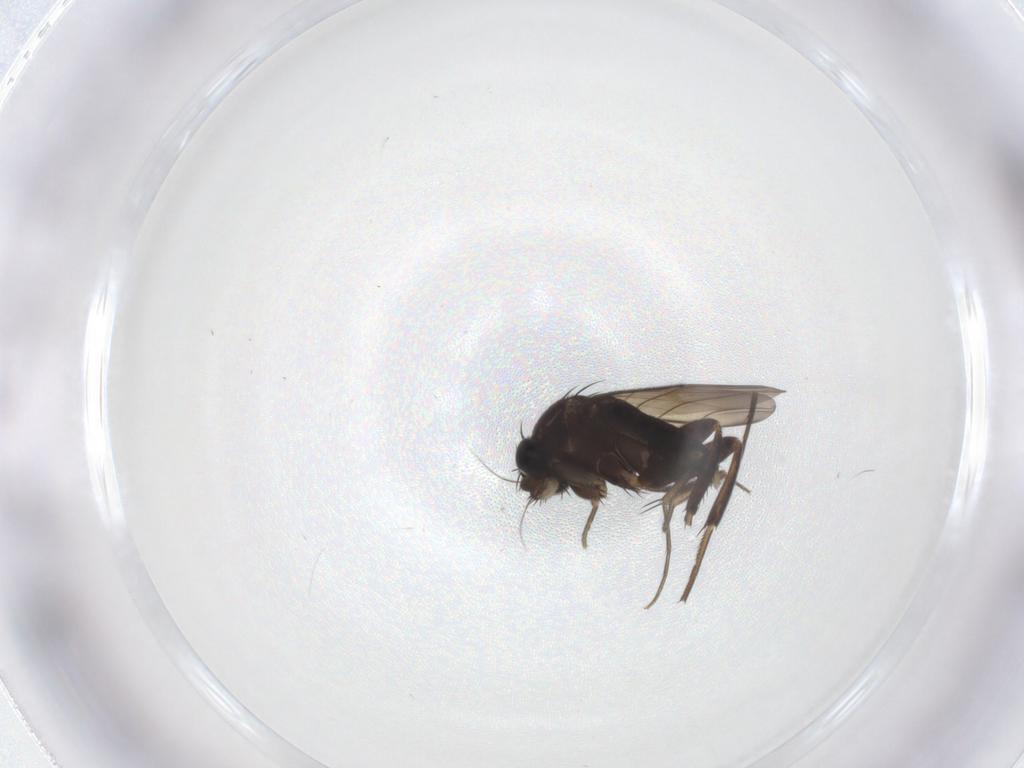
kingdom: Animalia
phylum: Arthropoda
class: Insecta
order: Diptera
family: Phoridae
